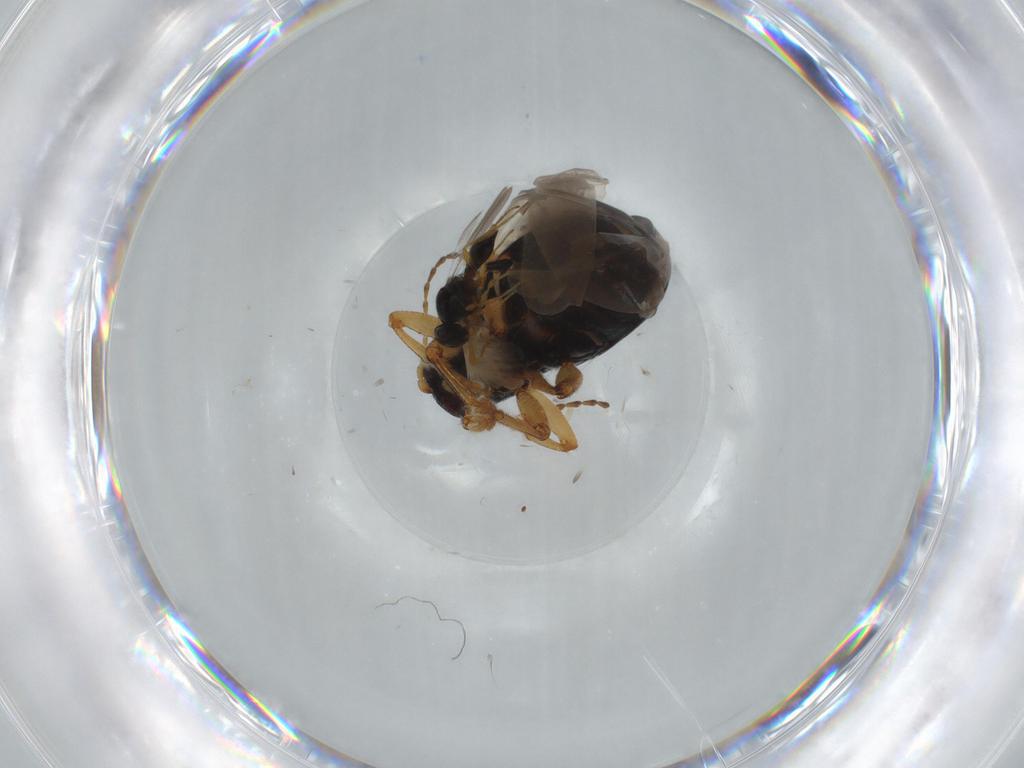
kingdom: Animalia
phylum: Arthropoda
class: Insecta
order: Coleoptera
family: Chrysomelidae
